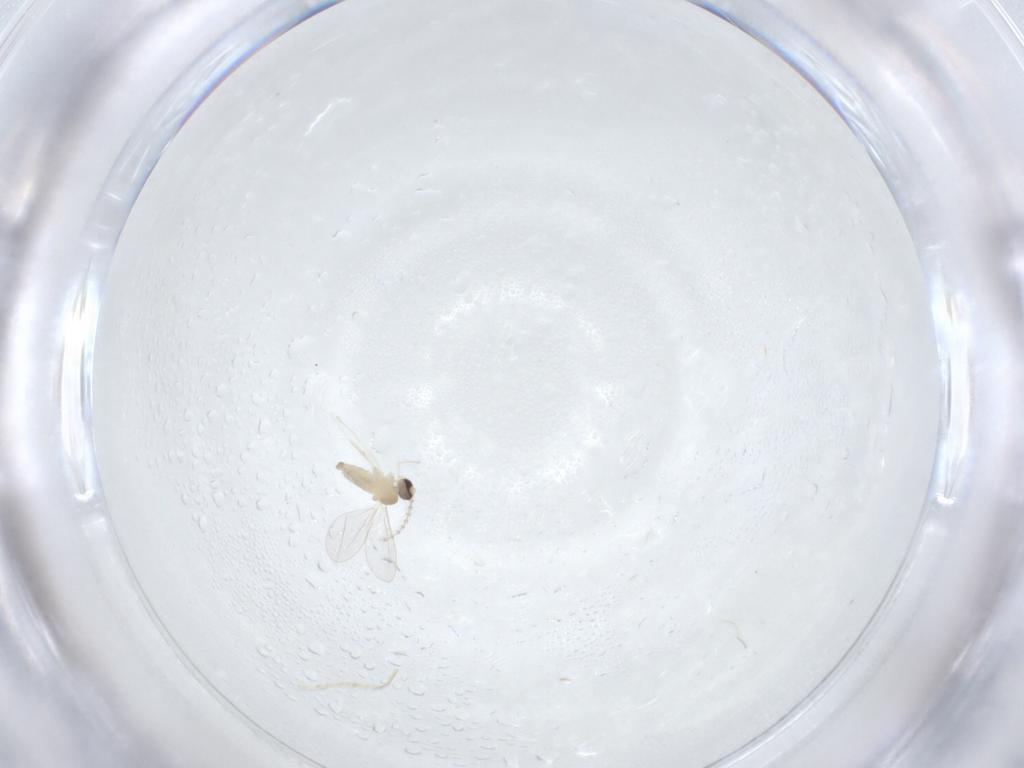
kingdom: Animalia
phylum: Arthropoda
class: Insecta
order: Diptera
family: Cecidomyiidae
